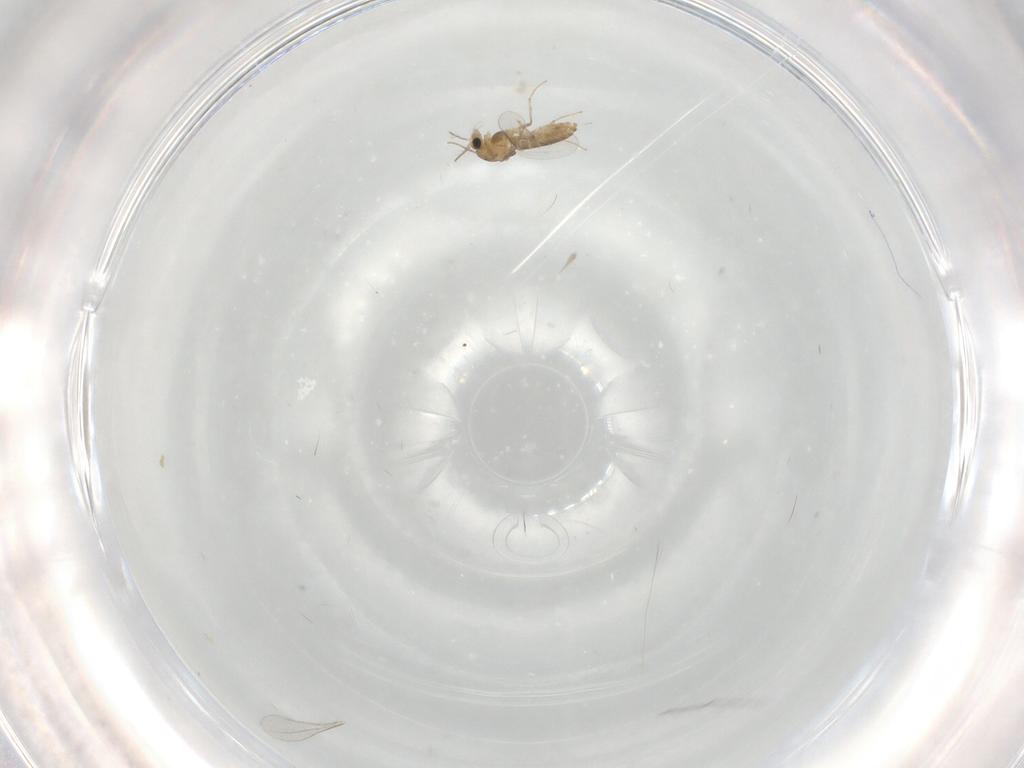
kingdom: Animalia
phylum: Arthropoda
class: Insecta
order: Diptera
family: Chironomidae
